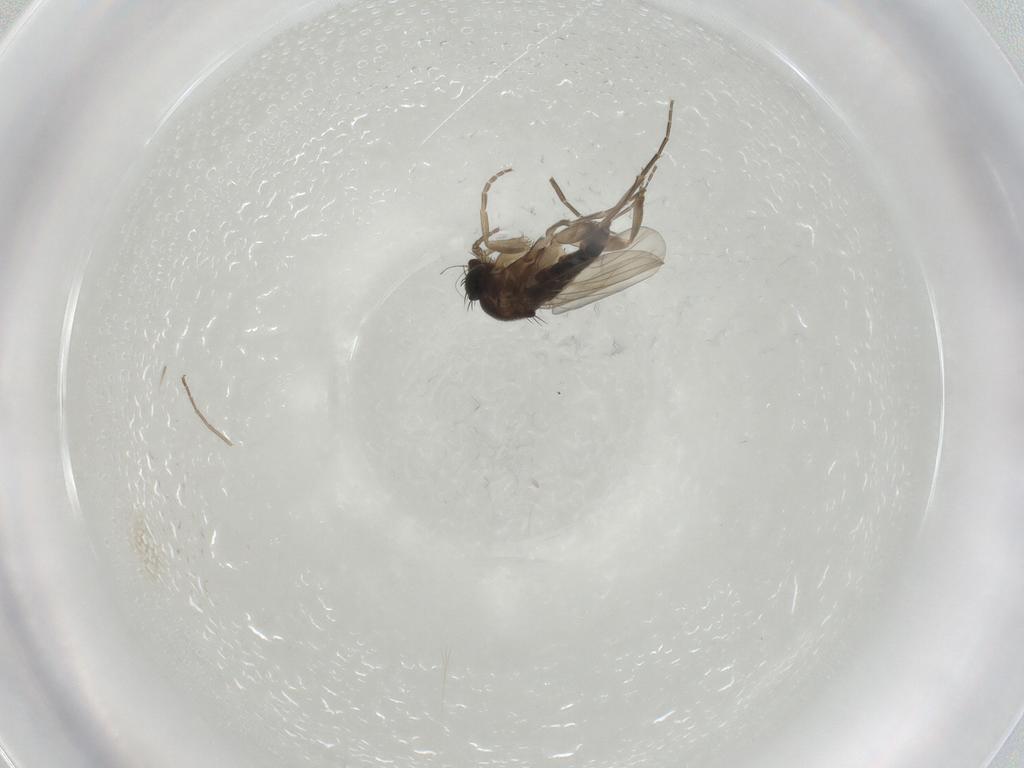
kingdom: Animalia
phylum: Arthropoda
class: Insecta
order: Diptera
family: Phoridae
